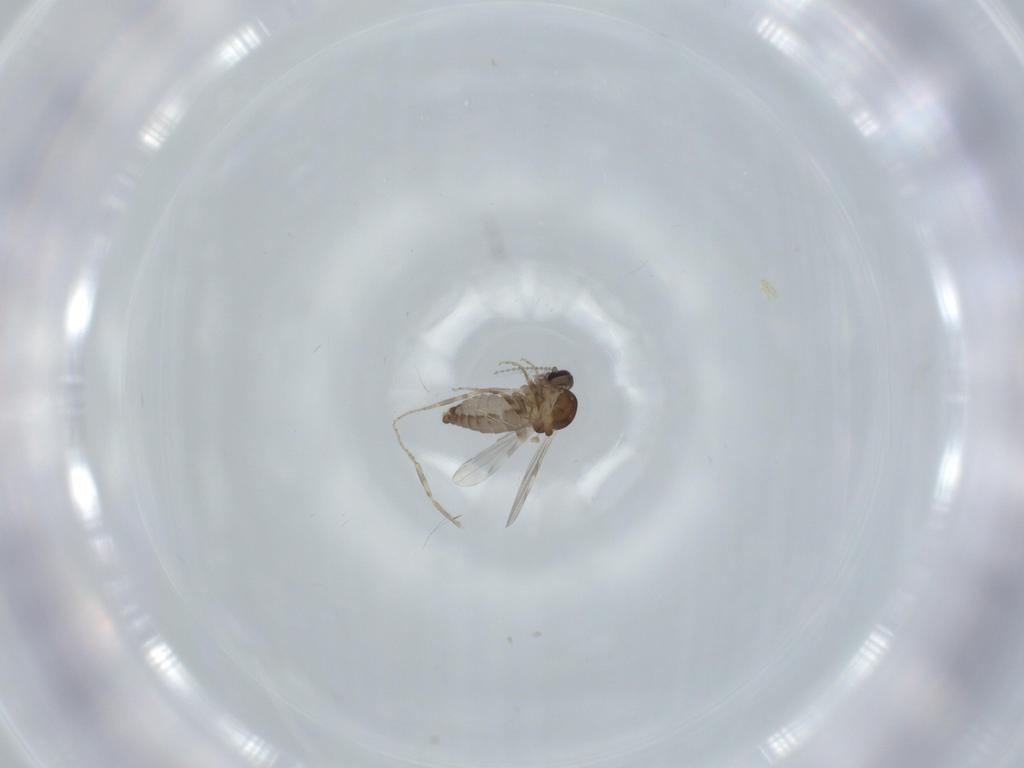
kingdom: Animalia
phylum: Arthropoda
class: Insecta
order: Diptera
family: Ceratopogonidae
